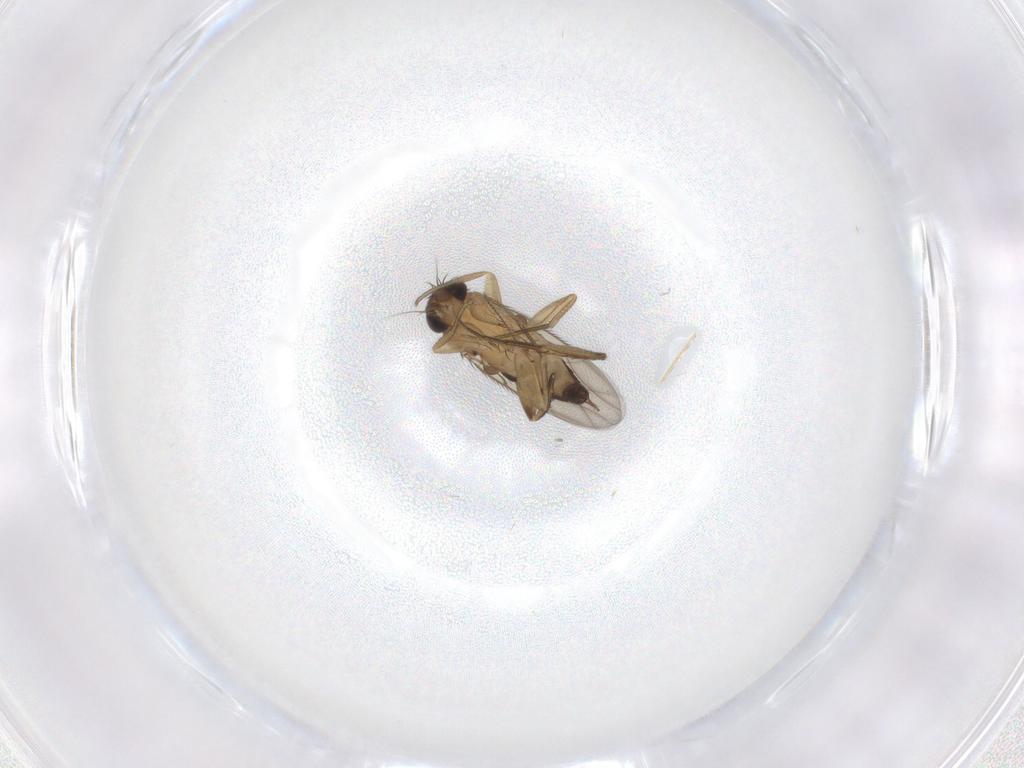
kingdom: Animalia
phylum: Arthropoda
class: Insecta
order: Diptera
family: Phoridae
